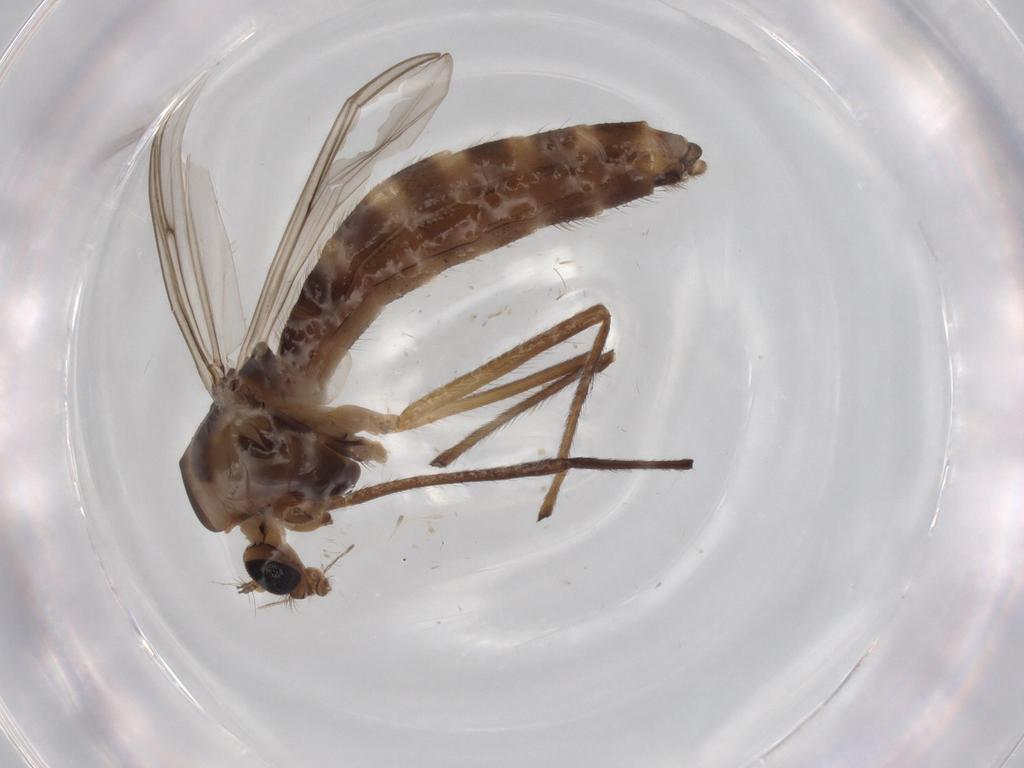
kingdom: Animalia
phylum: Arthropoda
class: Insecta
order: Diptera
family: Chironomidae
